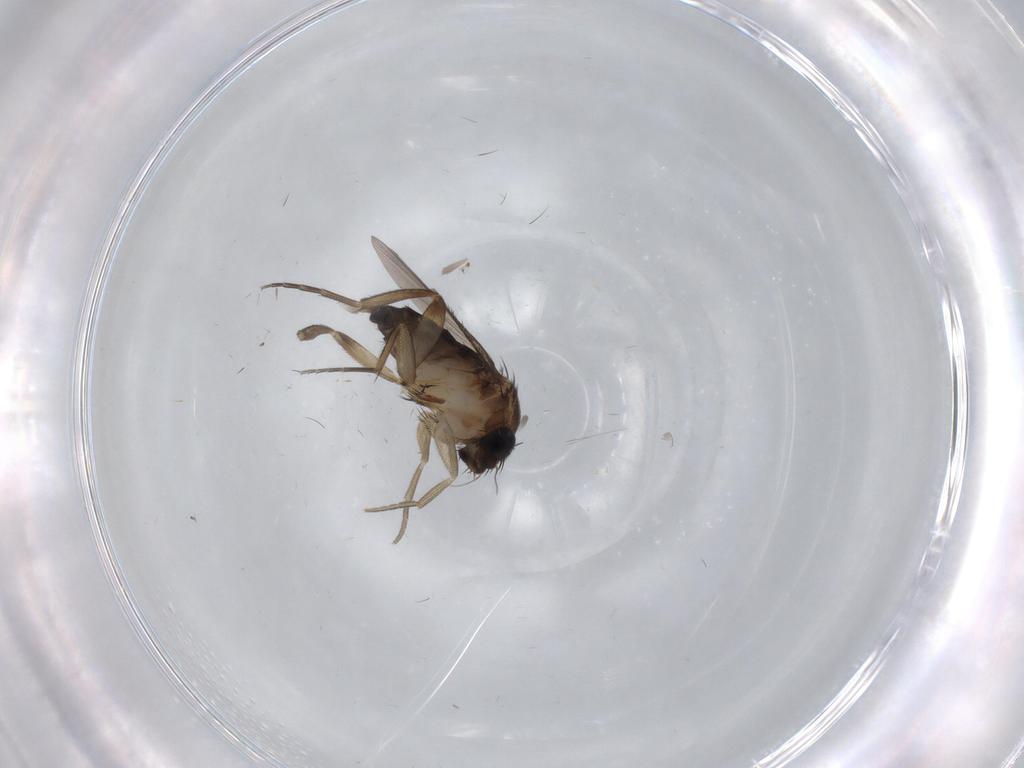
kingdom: Animalia
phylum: Arthropoda
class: Insecta
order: Diptera
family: Phoridae
